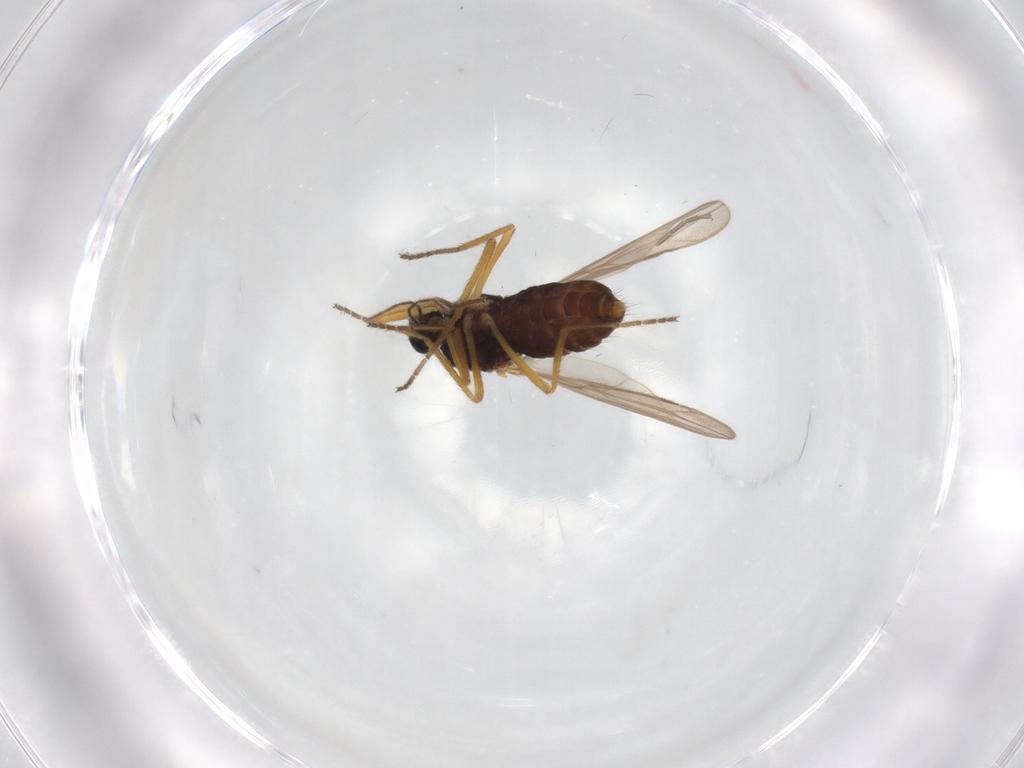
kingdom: Animalia
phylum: Arthropoda
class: Insecta
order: Diptera
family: Ceratopogonidae
